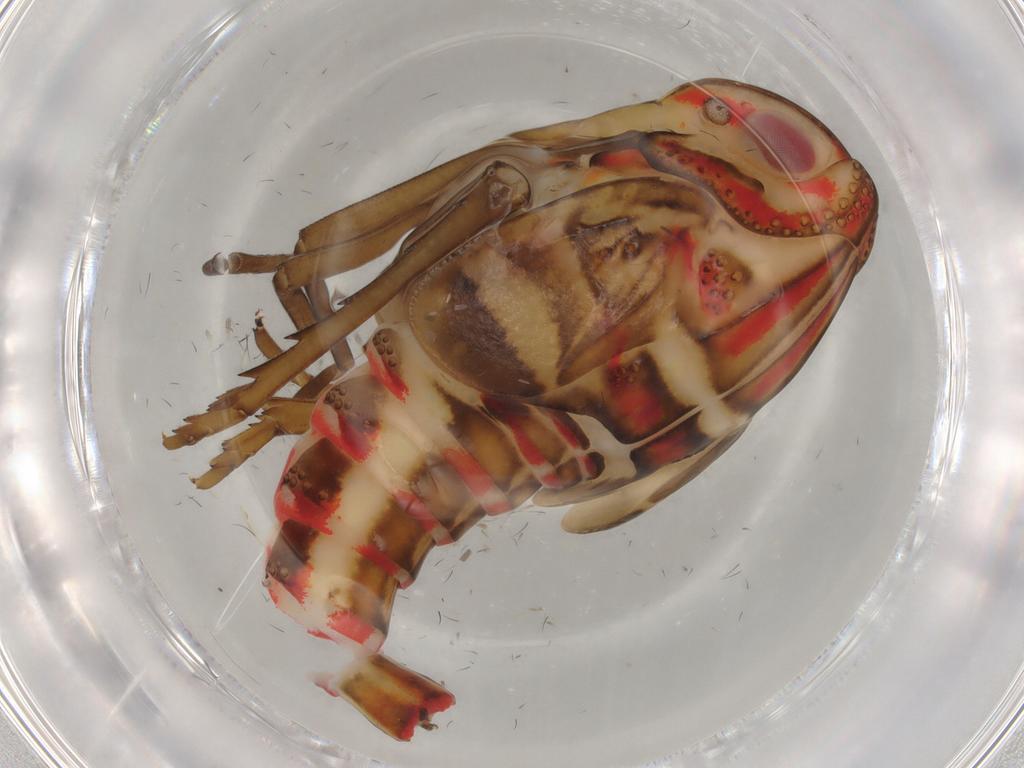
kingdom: Animalia
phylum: Arthropoda
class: Insecta
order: Hemiptera
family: Nogodinidae
